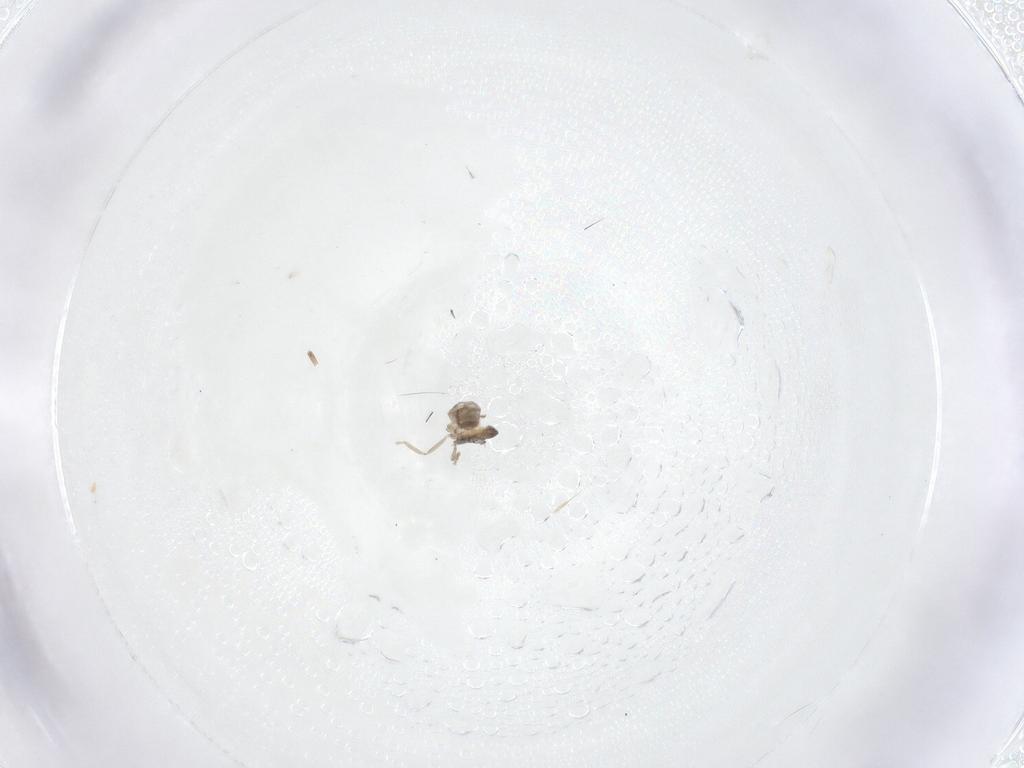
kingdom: Animalia
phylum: Arthropoda
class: Insecta
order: Diptera
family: Cecidomyiidae
